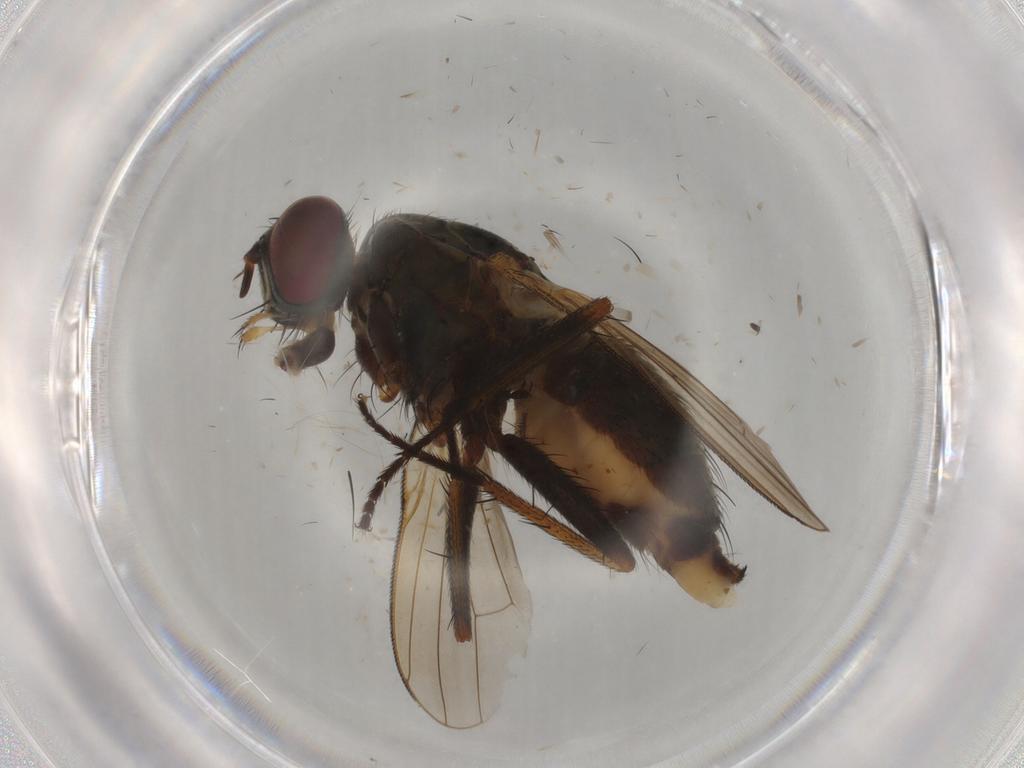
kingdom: Animalia
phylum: Arthropoda
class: Insecta
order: Diptera
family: Muscidae
